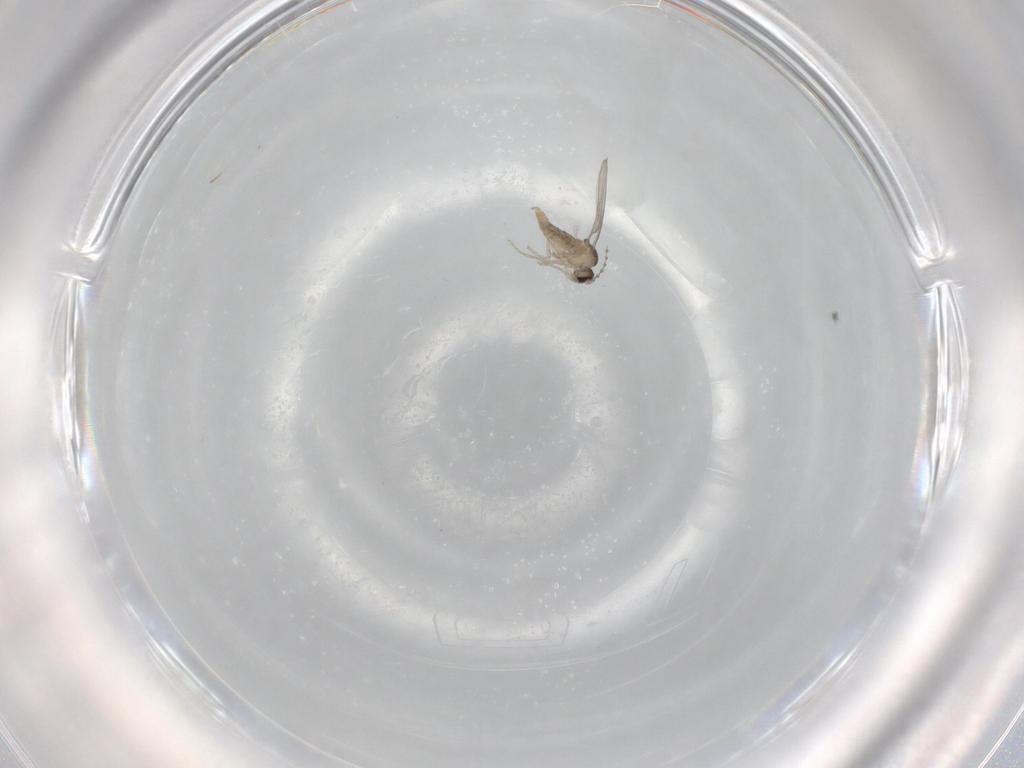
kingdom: Animalia
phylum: Arthropoda
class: Insecta
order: Diptera
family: Cecidomyiidae
